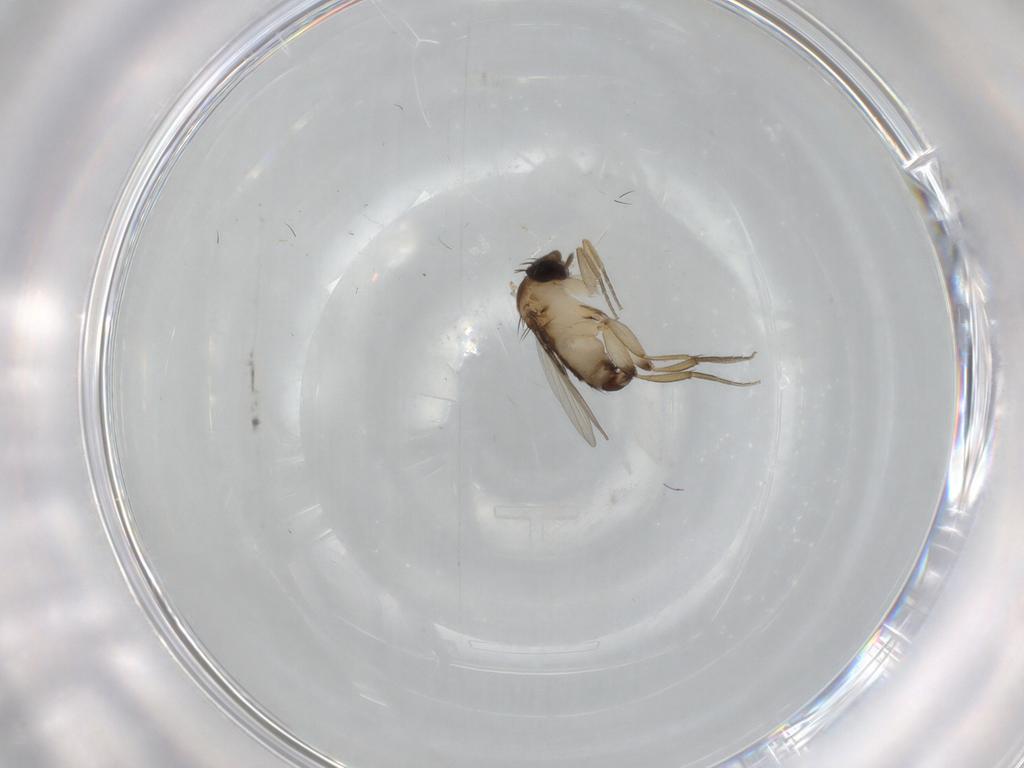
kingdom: Animalia
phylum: Arthropoda
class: Insecta
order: Diptera
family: Phoridae
